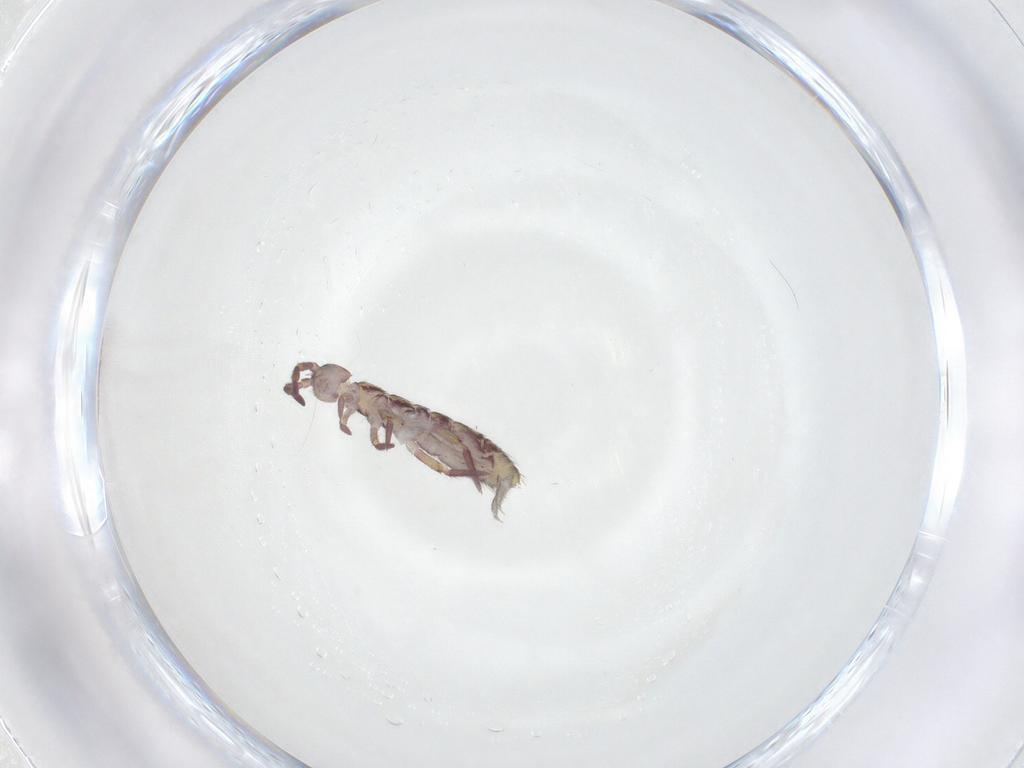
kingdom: Animalia
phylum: Arthropoda
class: Collembola
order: Entomobryomorpha
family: Isotomidae
